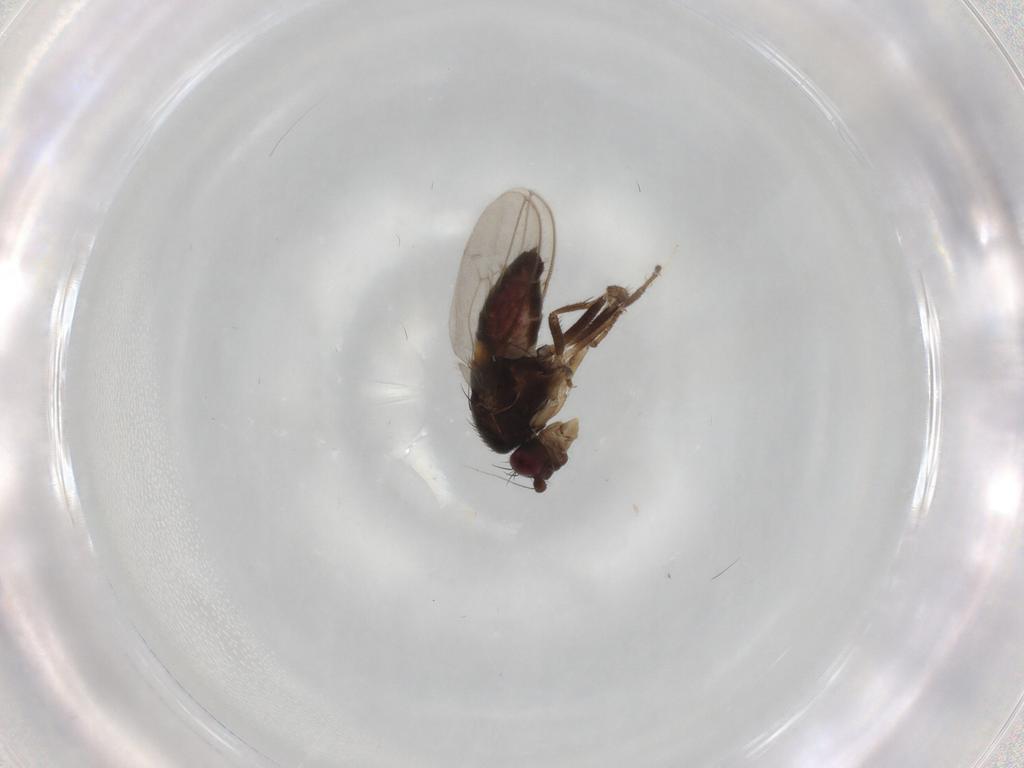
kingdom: Animalia
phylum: Arthropoda
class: Insecta
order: Diptera
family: Sphaeroceridae
